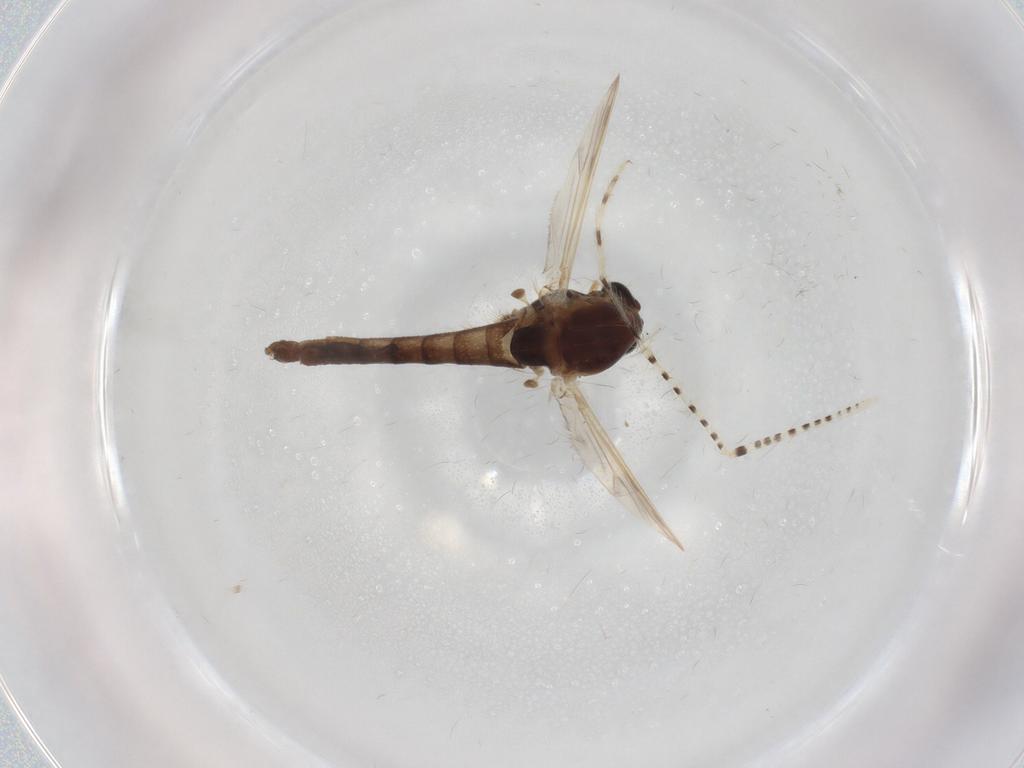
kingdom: Animalia
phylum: Arthropoda
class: Insecta
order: Diptera
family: Chironomidae
